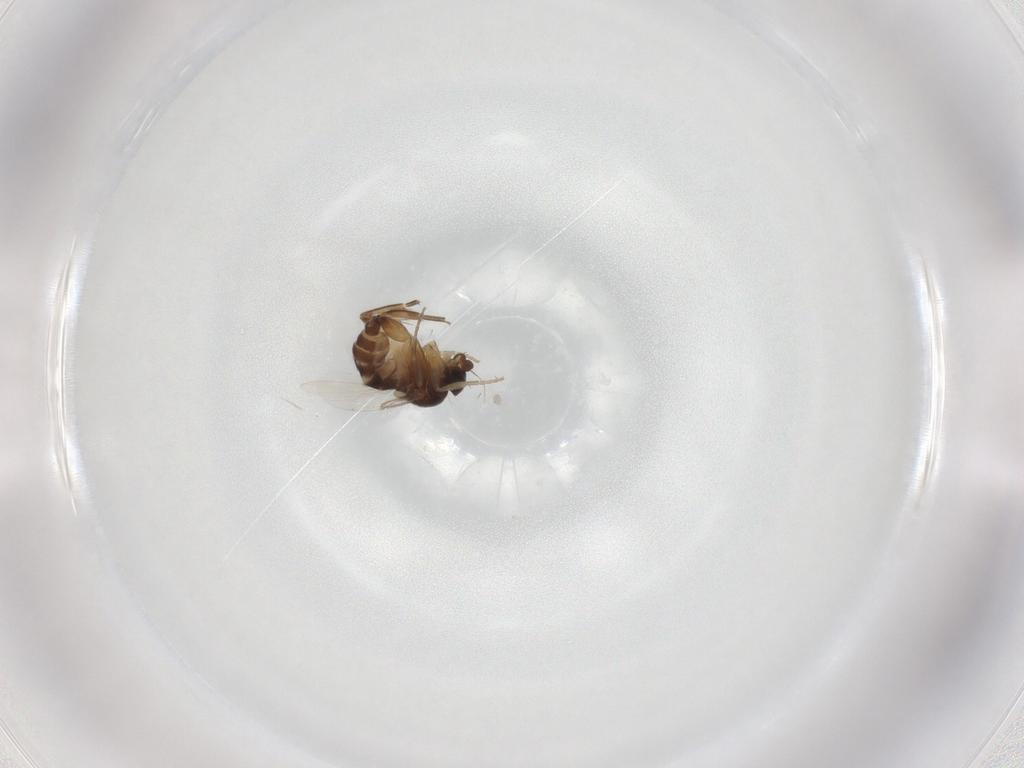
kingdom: Animalia
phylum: Arthropoda
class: Insecta
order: Diptera
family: Phoridae
